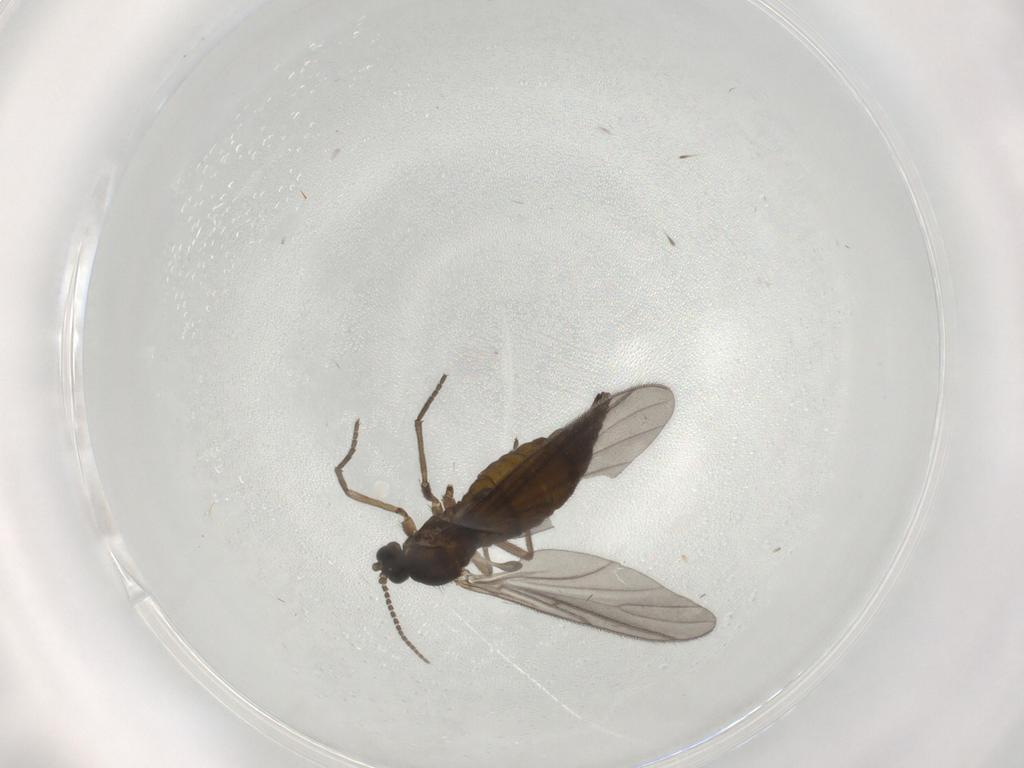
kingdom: Animalia
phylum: Arthropoda
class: Insecta
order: Diptera
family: Sciaridae
